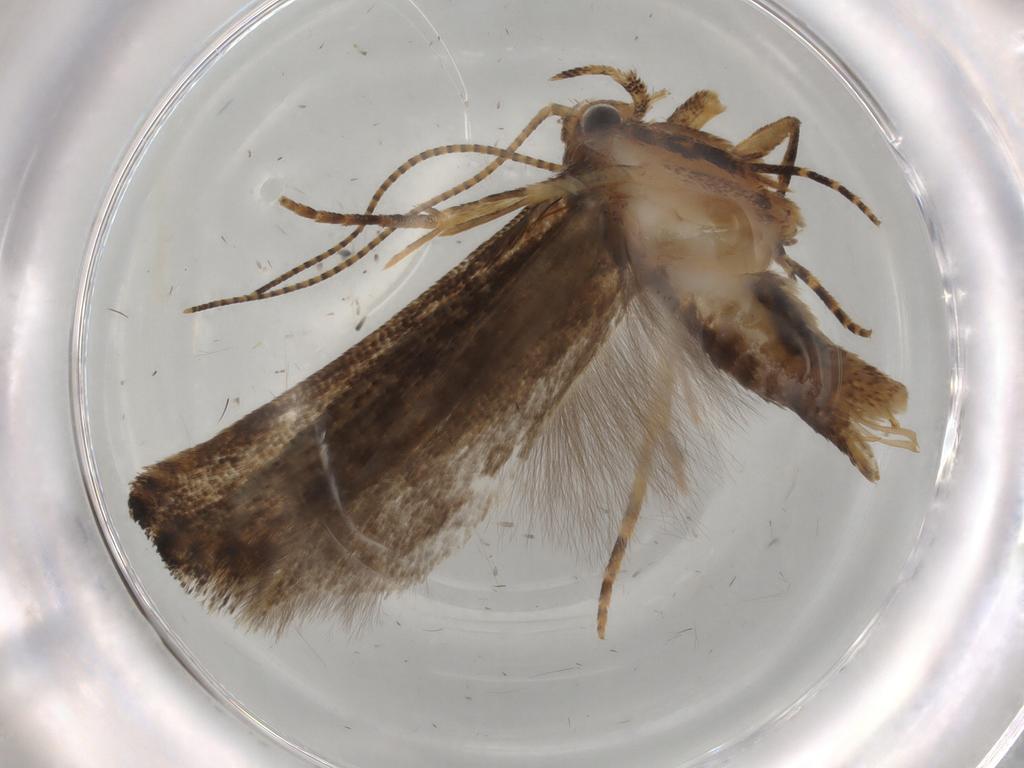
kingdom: Animalia
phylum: Arthropoda
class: Insecta
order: Lepidoptera
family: Gelechiidae
